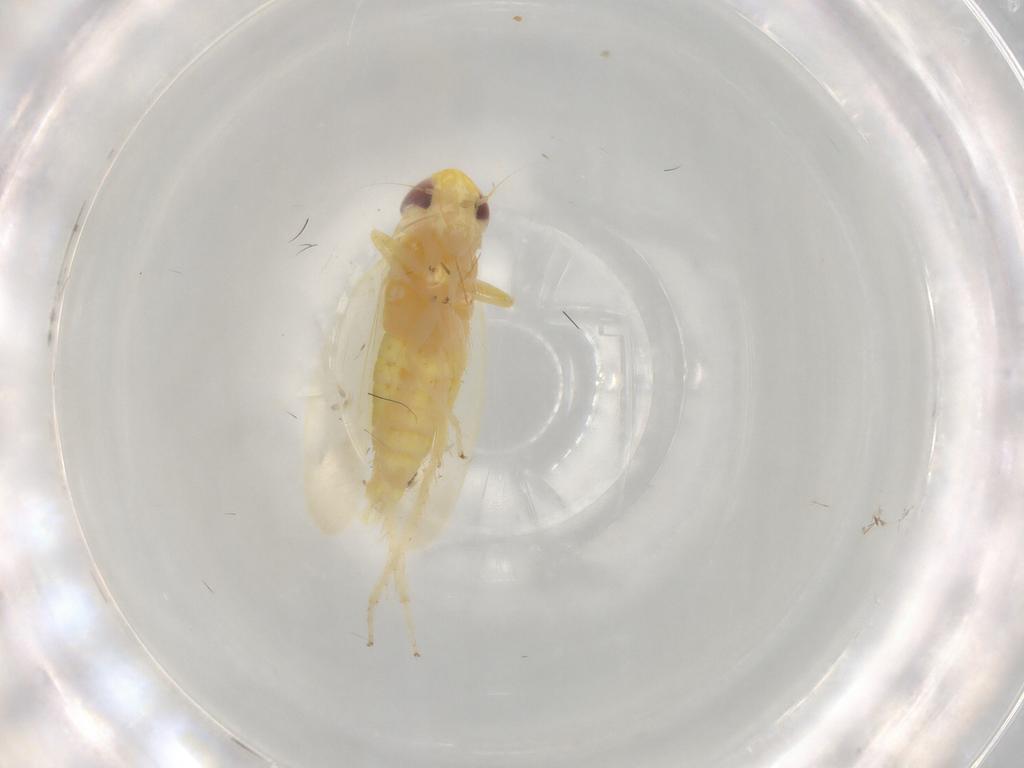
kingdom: Animalia
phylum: Arthropoda
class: Insecta
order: Hemiptera
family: Cicadellidae
